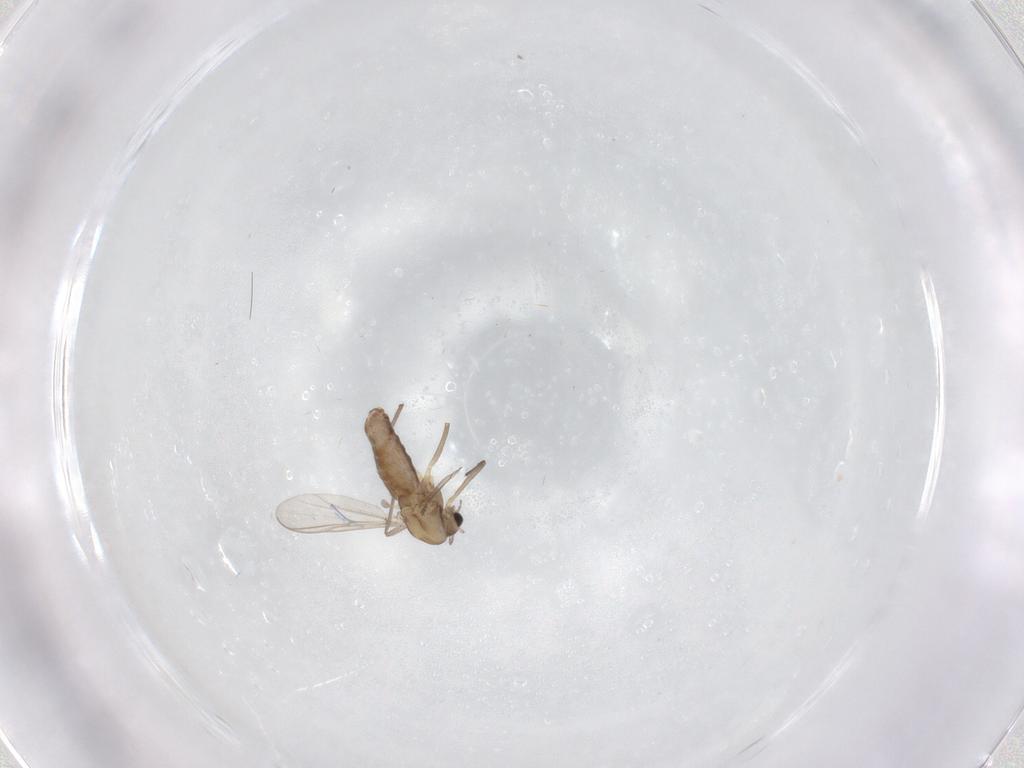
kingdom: Animalia
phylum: Arthropoda
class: Insecta
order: Diptera
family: Chironomidae
